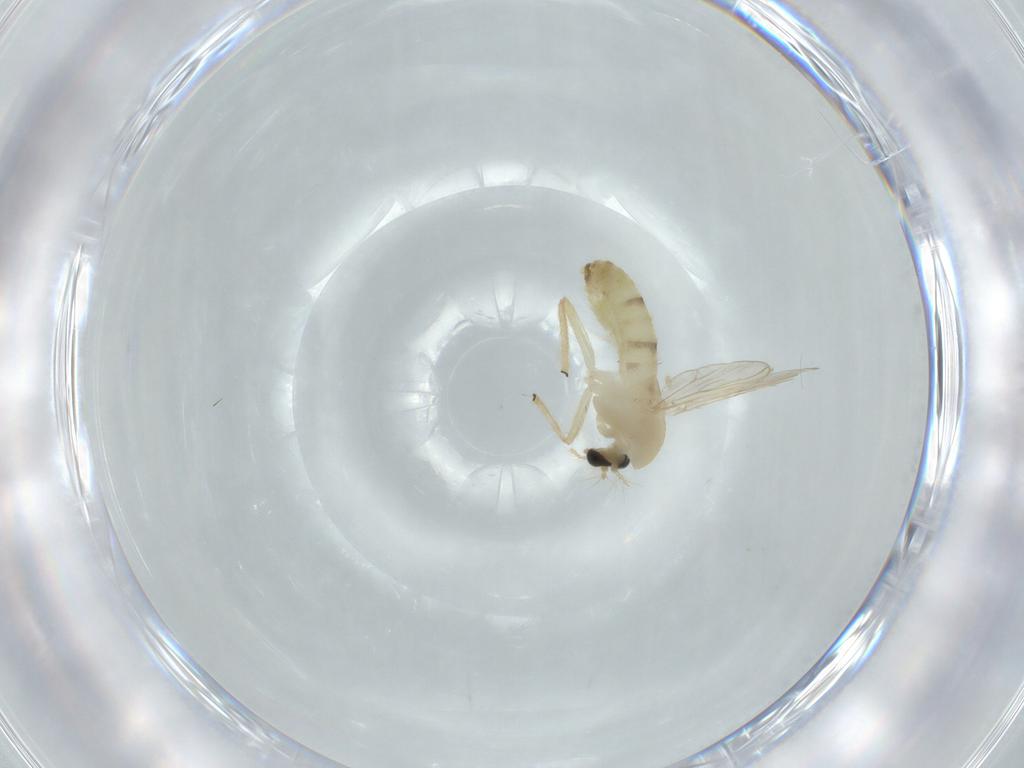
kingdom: Animalia
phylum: Arthropoda
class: Insecta
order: Diptera
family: Chironomidae
